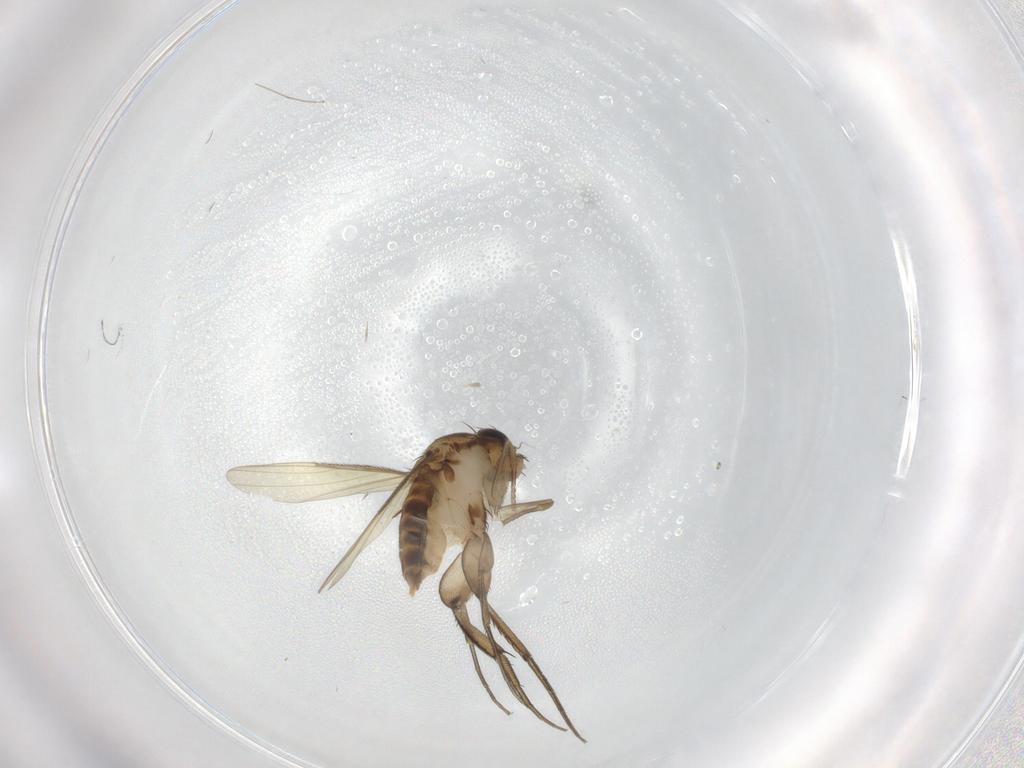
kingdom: Animalia
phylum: Arthropoda
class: Insecta
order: Diptera
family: Phoridae
